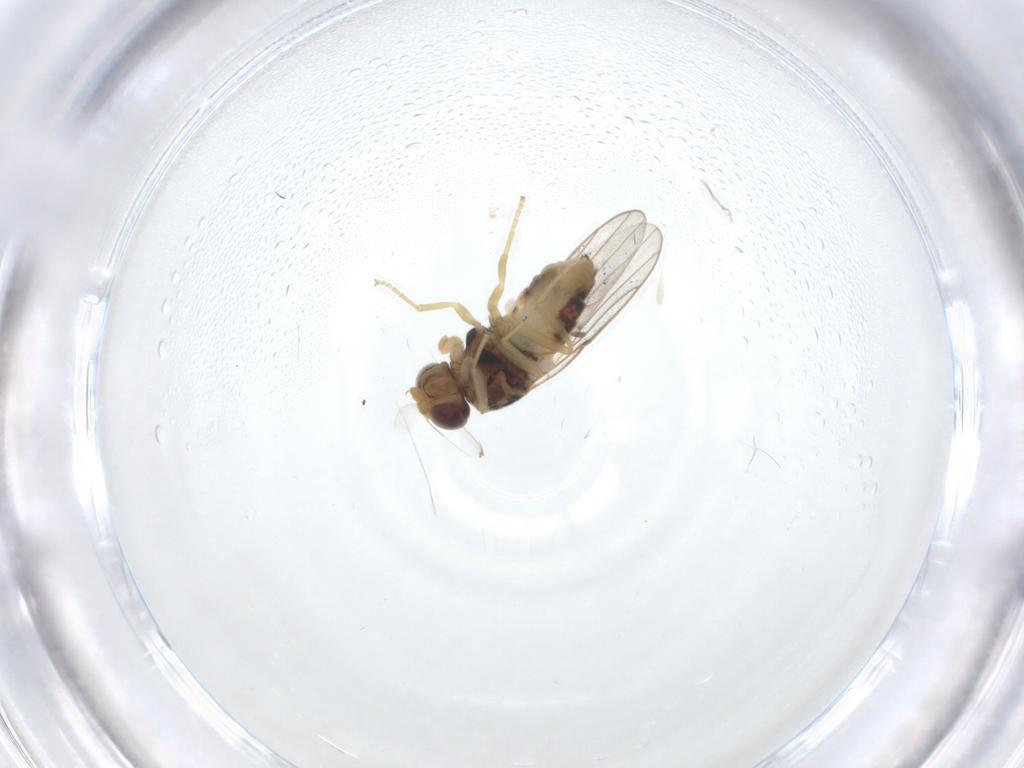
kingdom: Animalia
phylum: Arthropoda
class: Insecta
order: Diptera
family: Chloropidae
